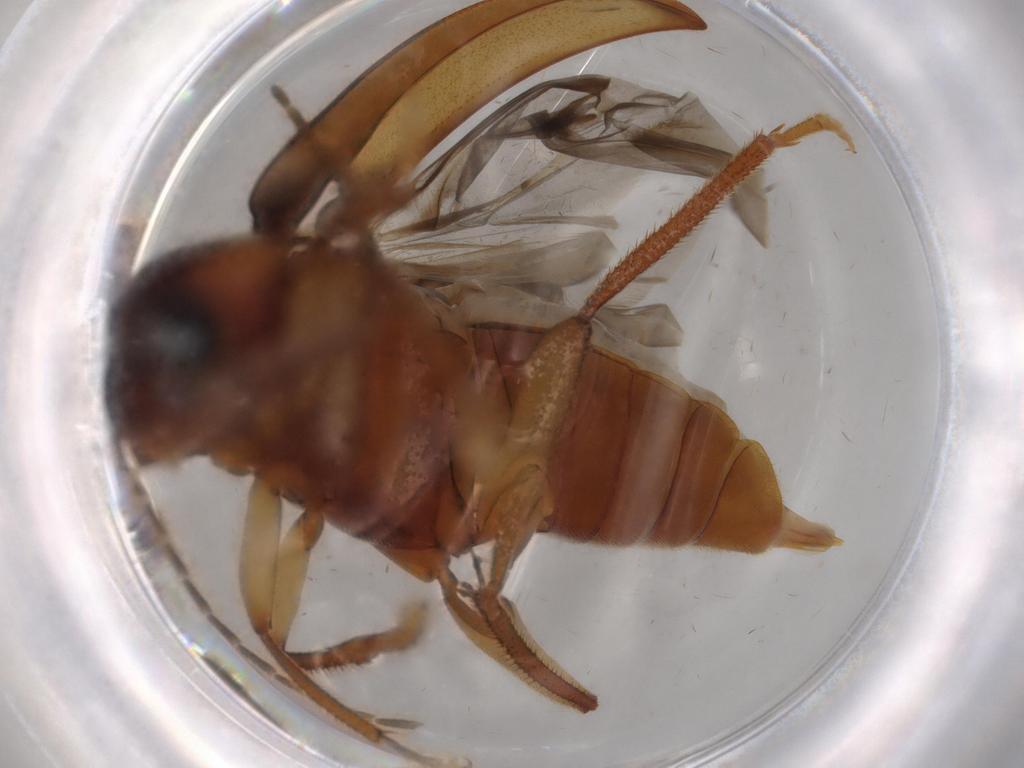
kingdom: Animalia
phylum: Arthropoda
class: Insecta
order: Coleoptera
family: Ptilodactylidae
